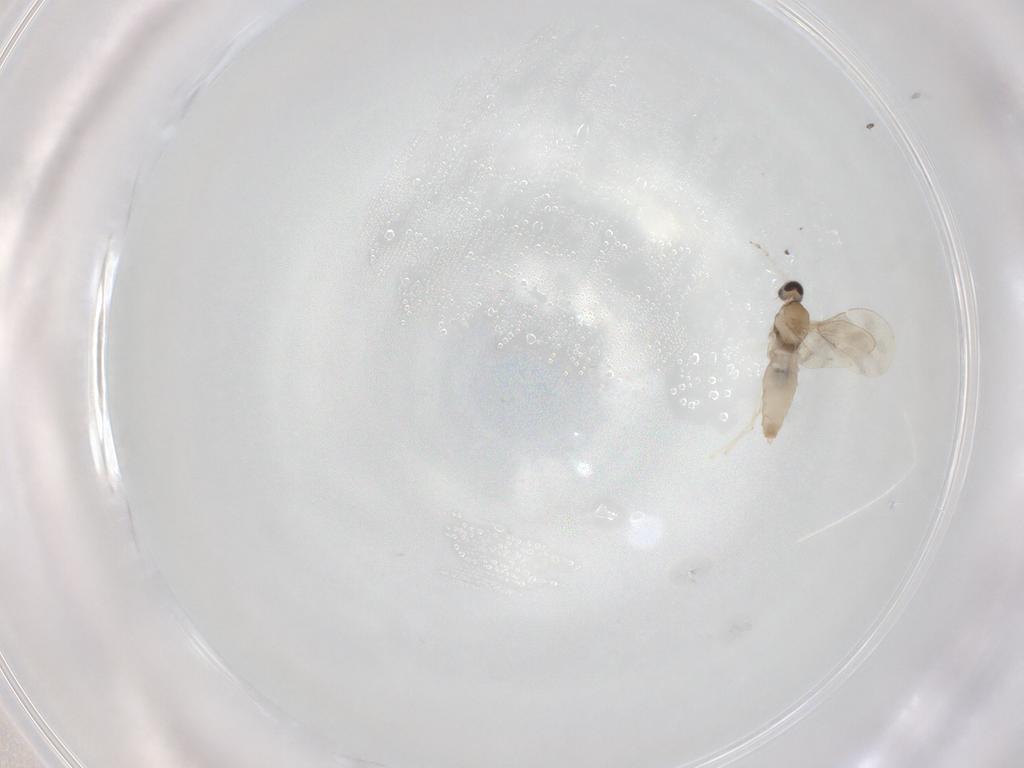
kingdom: Animalia
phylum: Arthropoda
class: Insecta
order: Diptera
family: Cecidomyiidae
